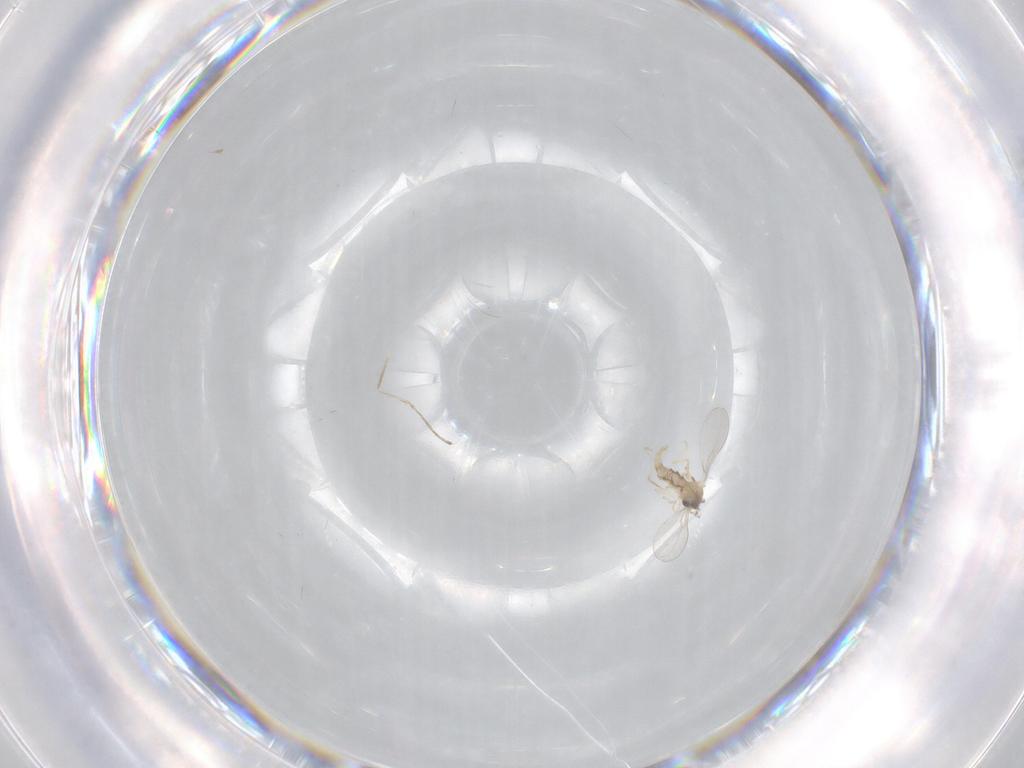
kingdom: Animalia
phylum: Arthropoda
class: Insecta
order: Diptera
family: Cecidomyiidae
